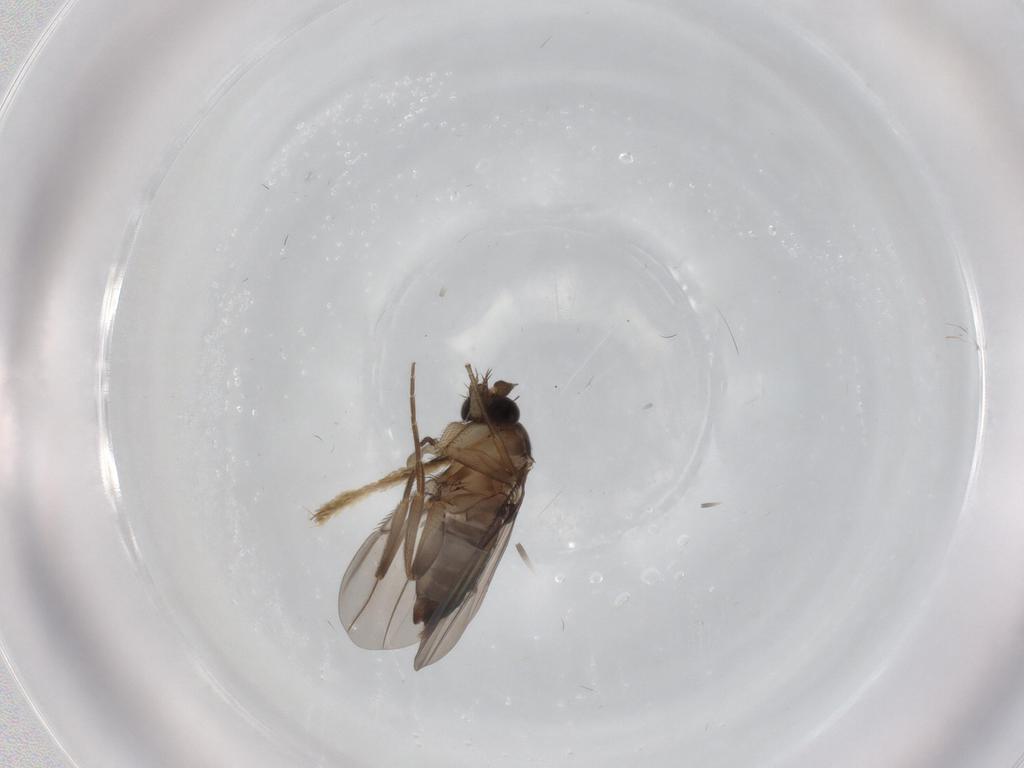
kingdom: Animalia
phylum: Arthropoda
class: Insecta
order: Diptera
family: Phoridae
